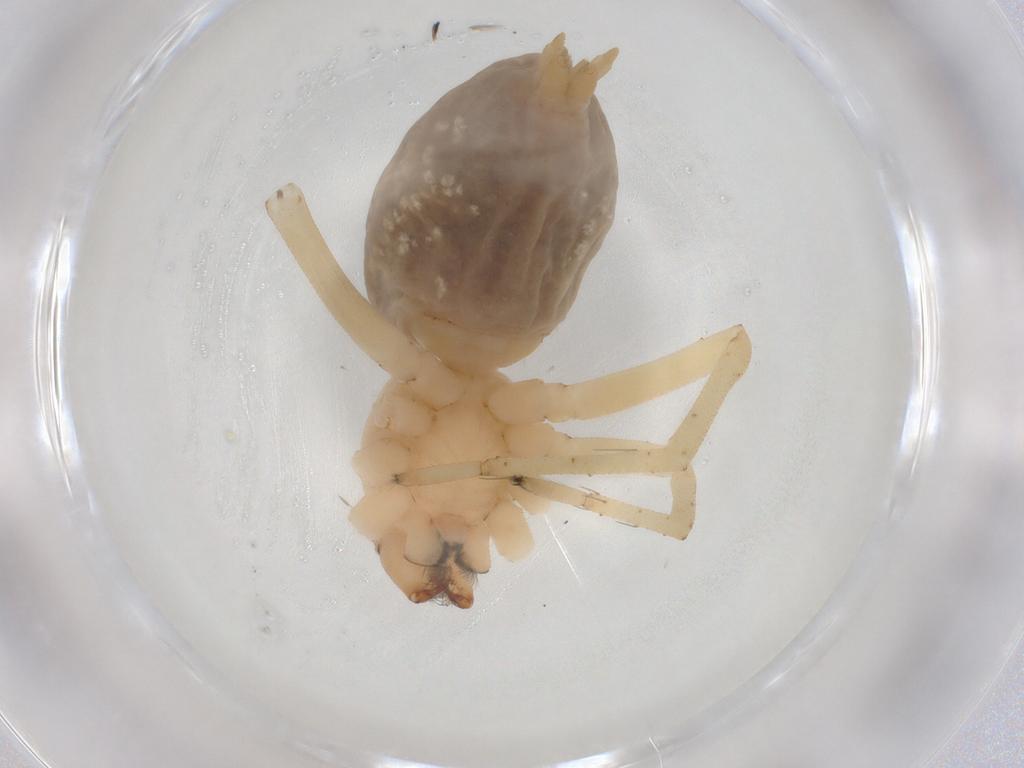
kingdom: Animalia
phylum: Arthropoda
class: Arachnida
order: Araneae
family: Cheiracanthiidae
